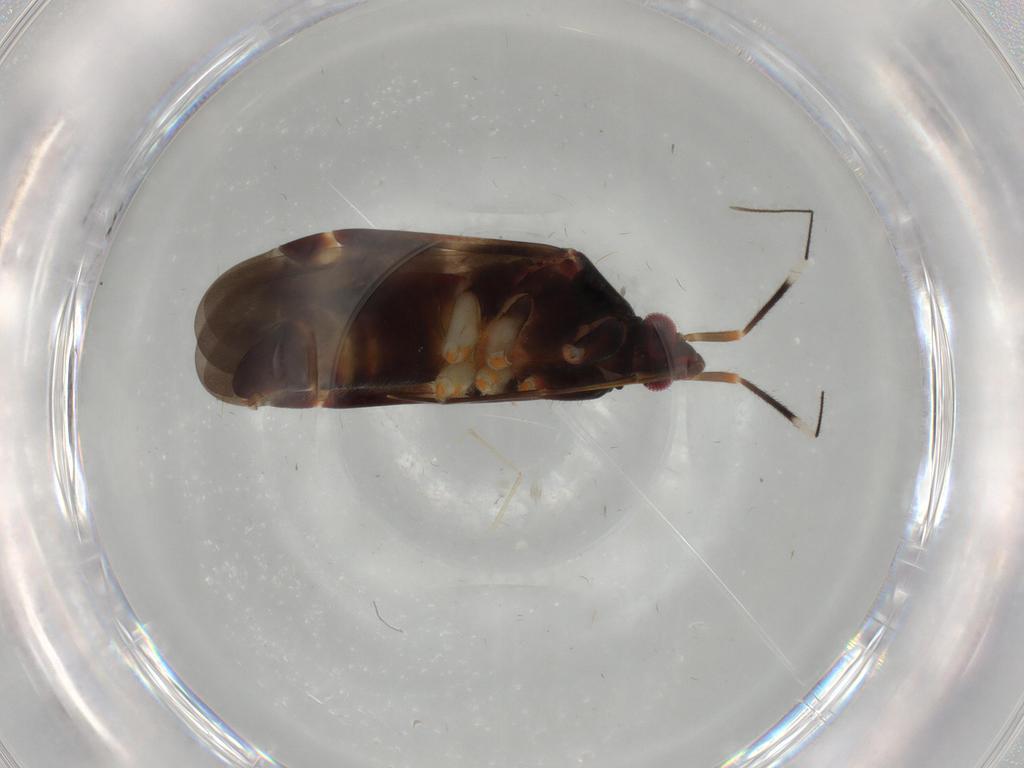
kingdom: Animalia
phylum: Arthropoda
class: Insecta
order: Hemiptera
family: Miridae
